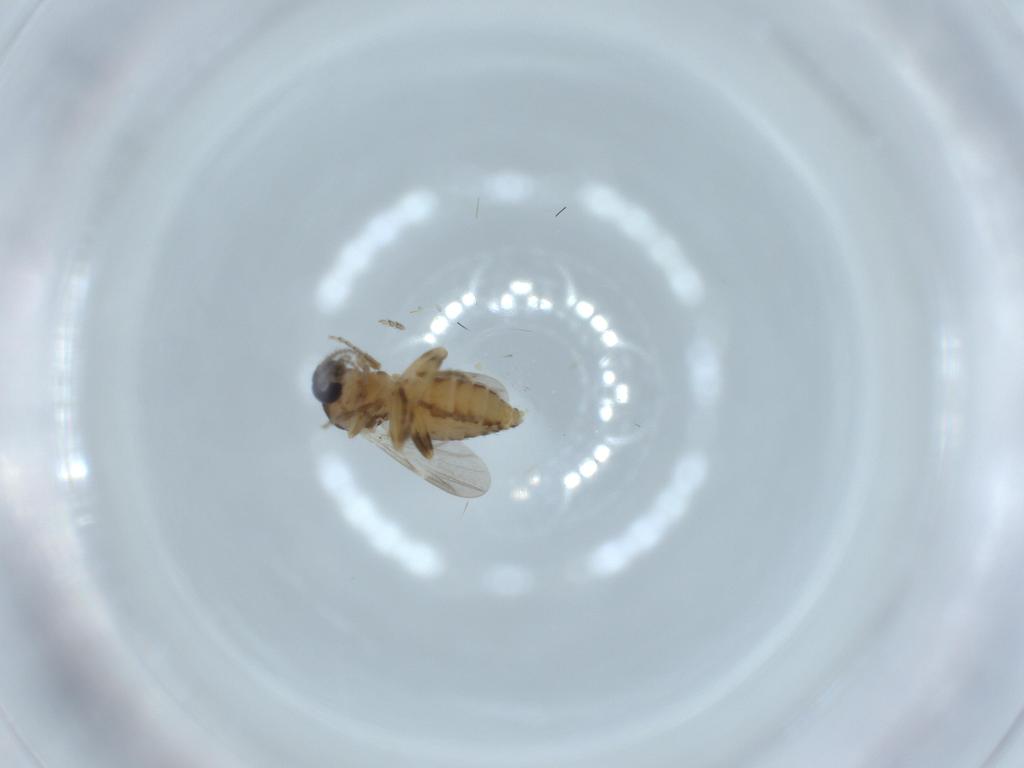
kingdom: Animalia
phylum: Arthropoda
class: Insecta
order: Diptera
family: Ceratopogonidae
